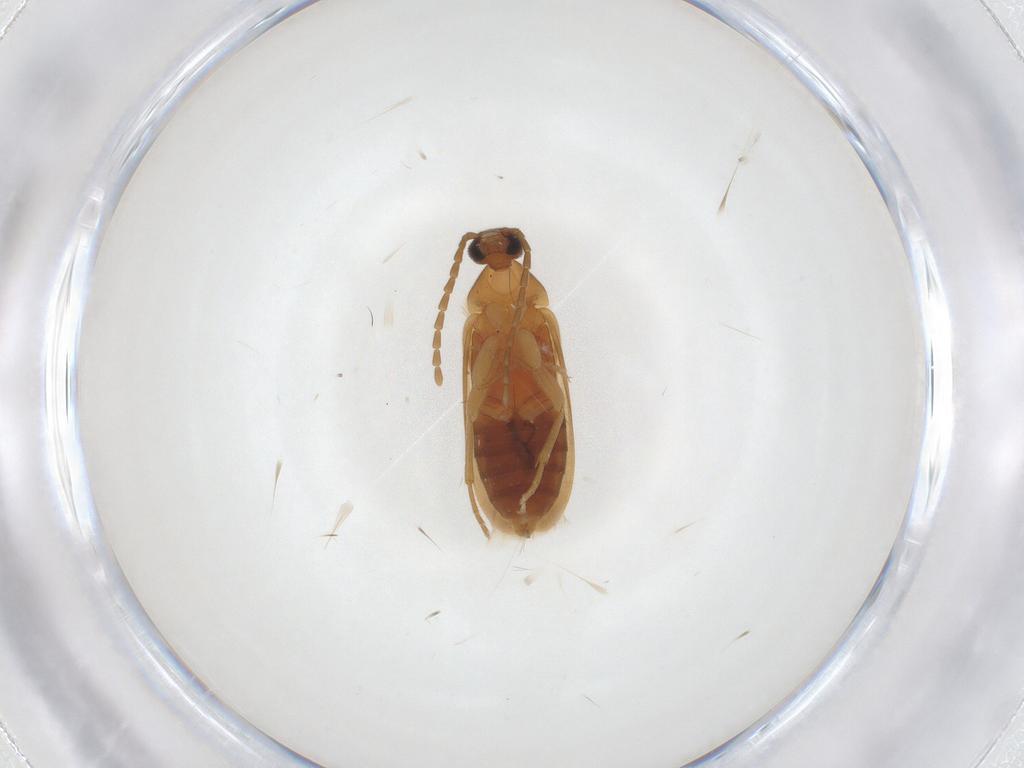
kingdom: Animalia
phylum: Arthropoda
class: Insecta
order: Coleoptera
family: Scraptiidae
